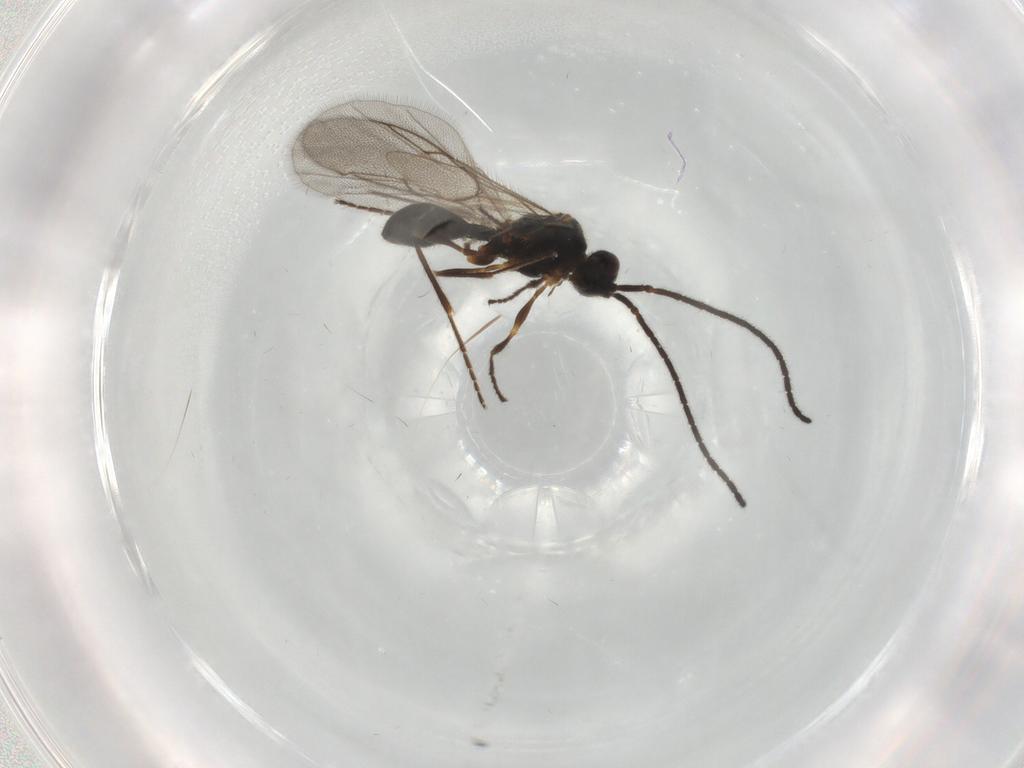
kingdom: Animalia
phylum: Arthropoda
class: Insecta
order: Hymenoptera
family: Diapriidae
